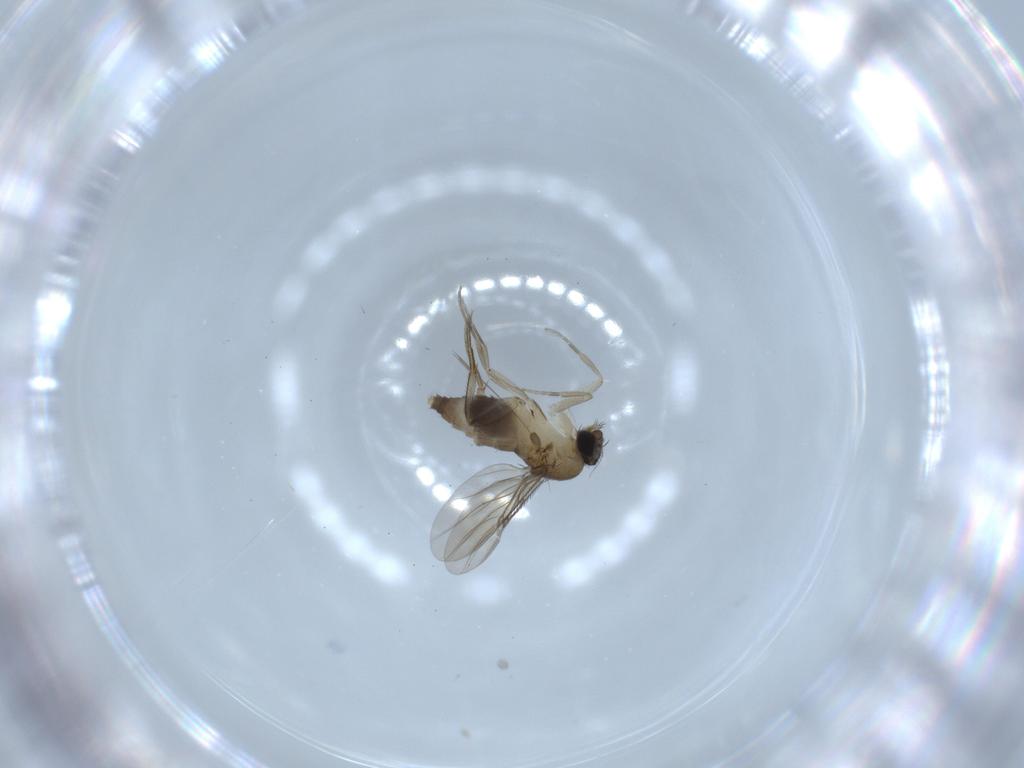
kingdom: Animalia
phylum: Arthropoda
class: Insecta
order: Diptera
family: Phoridae
